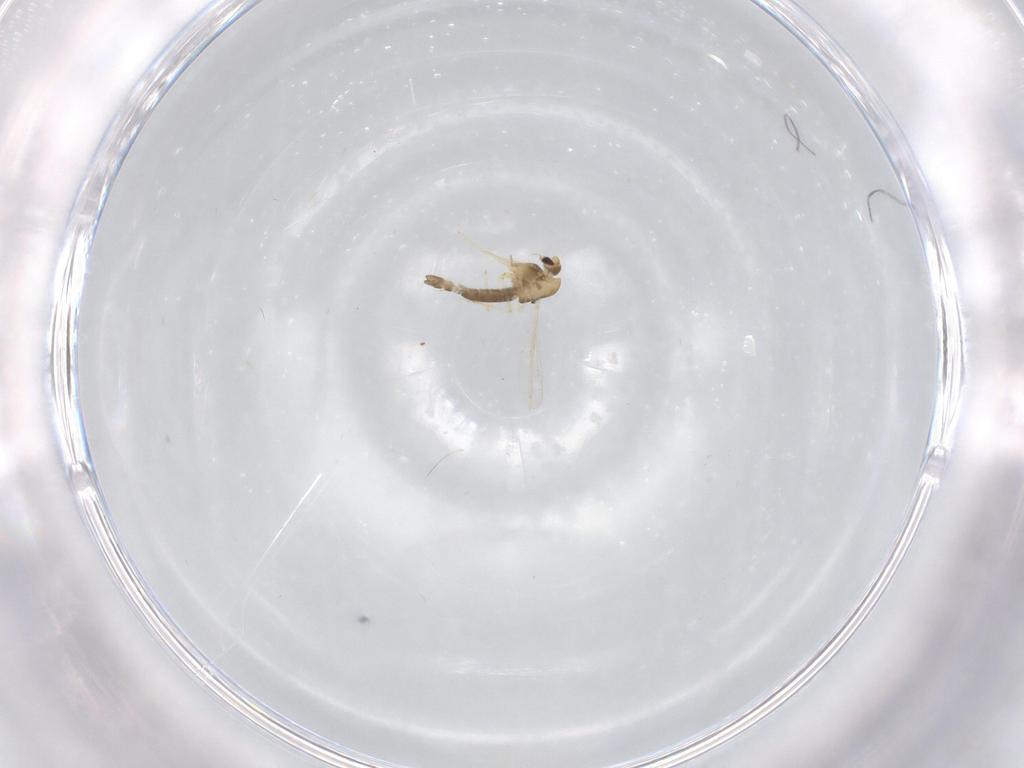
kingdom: Animalia
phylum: Arthropoda
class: Insecta
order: Diptera
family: Chironomidae
